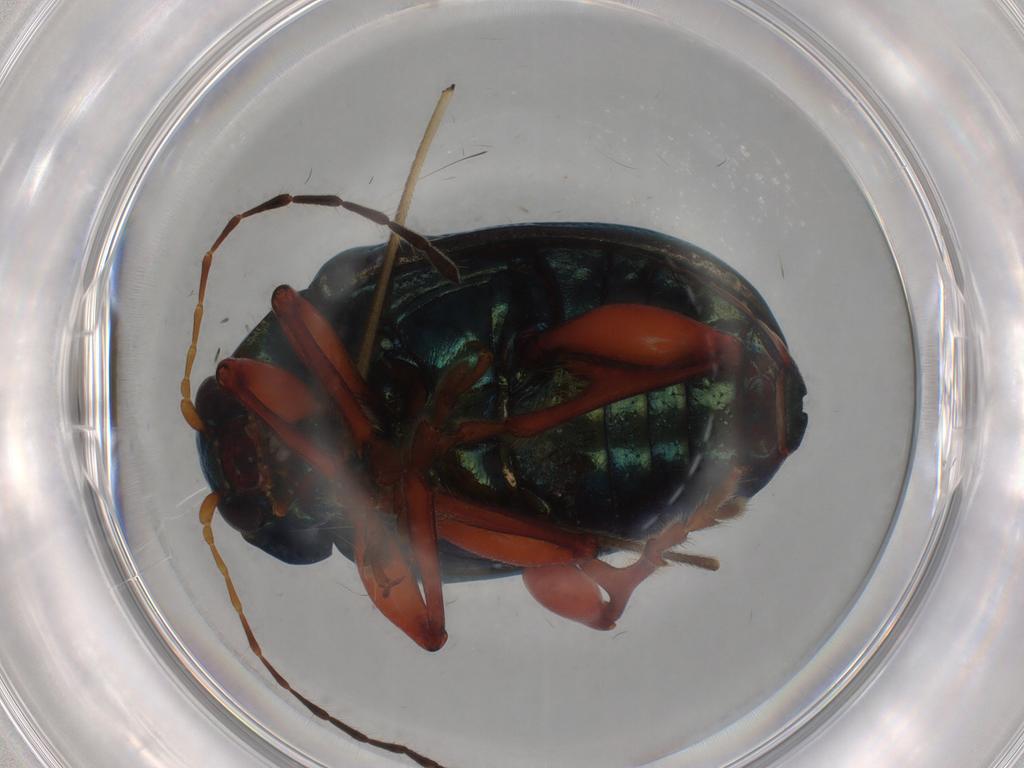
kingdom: Animalia
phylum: Arthropoda
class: Insecta
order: Coleoptera
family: Chrysomelidae
